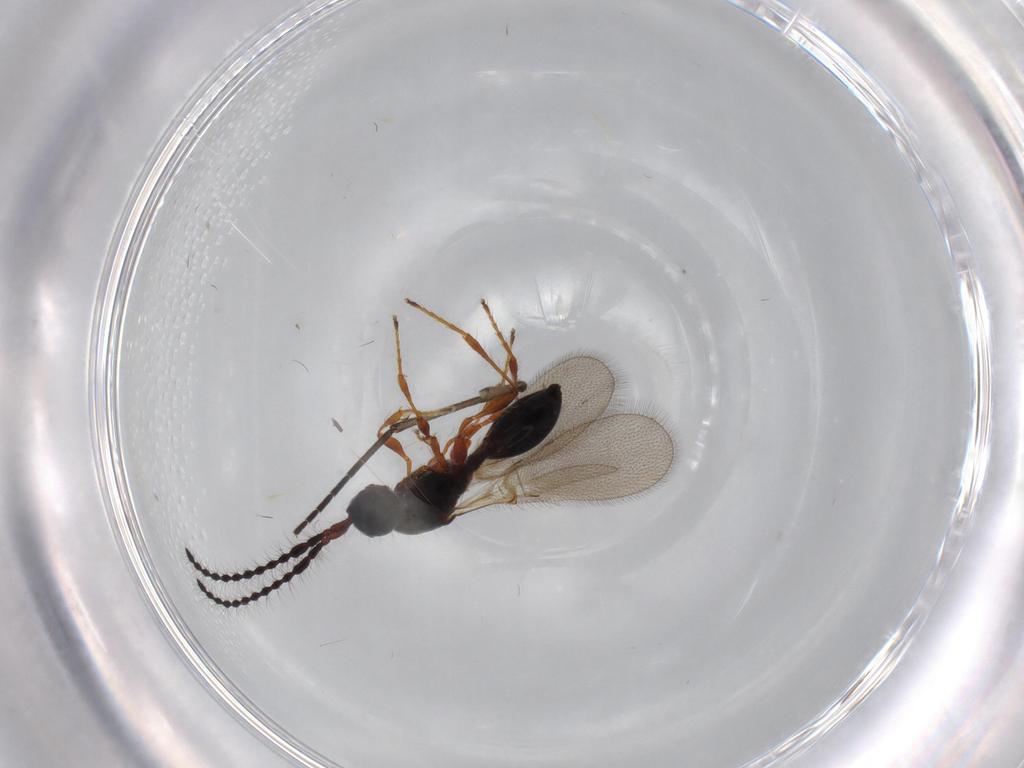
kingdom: Animalia
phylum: Arthropoda
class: Insecta
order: Hymenoptera
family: Diapriidae
